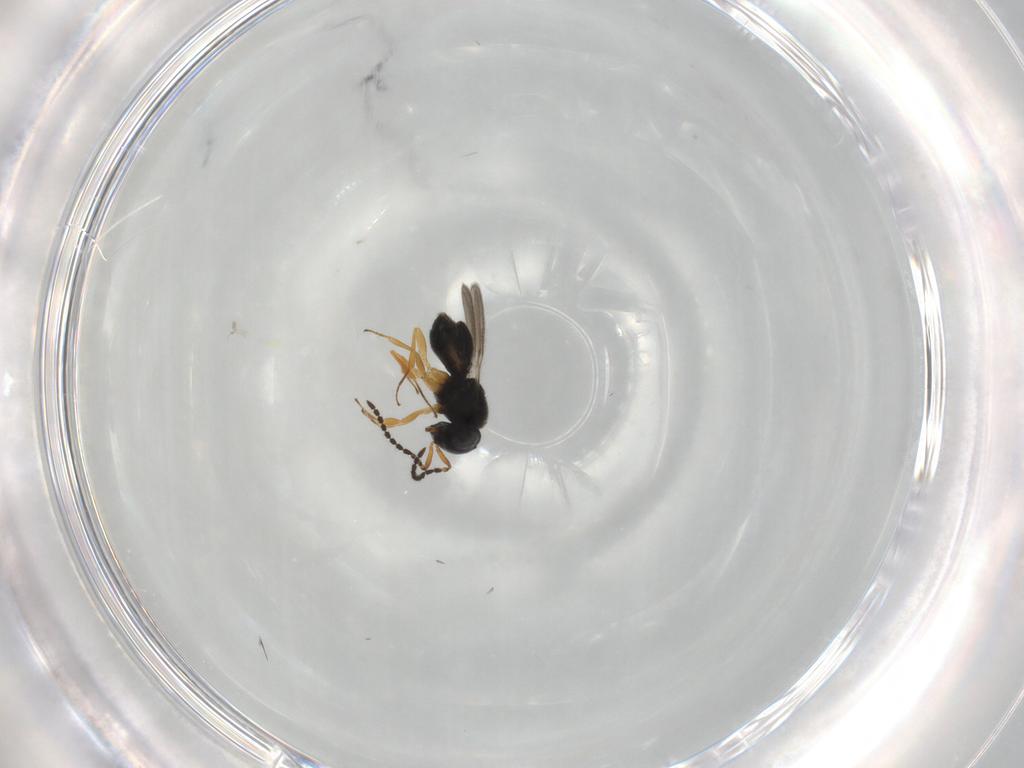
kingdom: Animalia
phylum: Arthropoda
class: Insecta
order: Hymenoptera
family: Scelionidae
